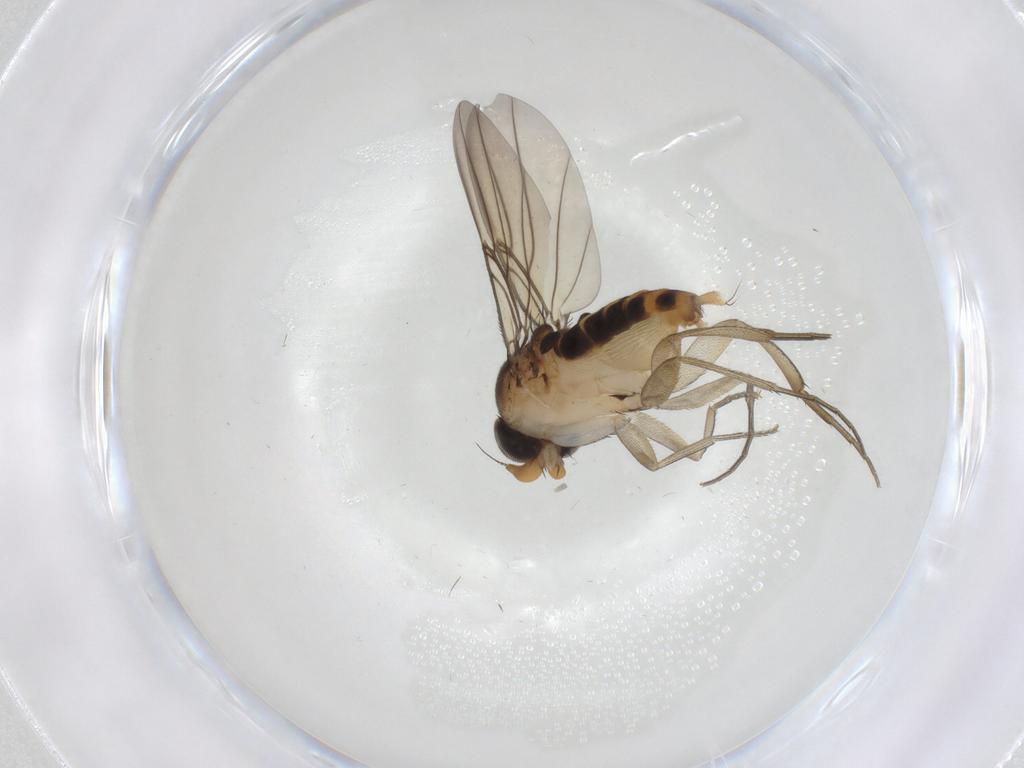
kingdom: Animalia
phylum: Arthropoda
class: Insecta
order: Diptera
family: Phoridae
